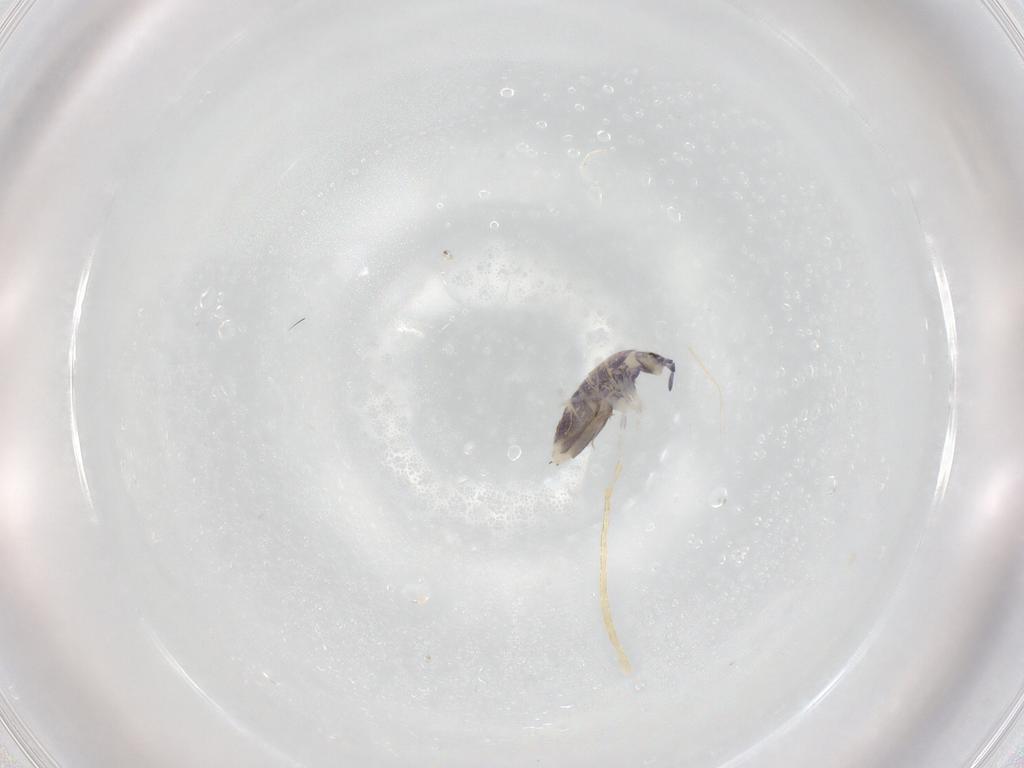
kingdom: Animalia
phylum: Arthropoda
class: Collembola
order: Entomobryomorpha
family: Entomobryidae
